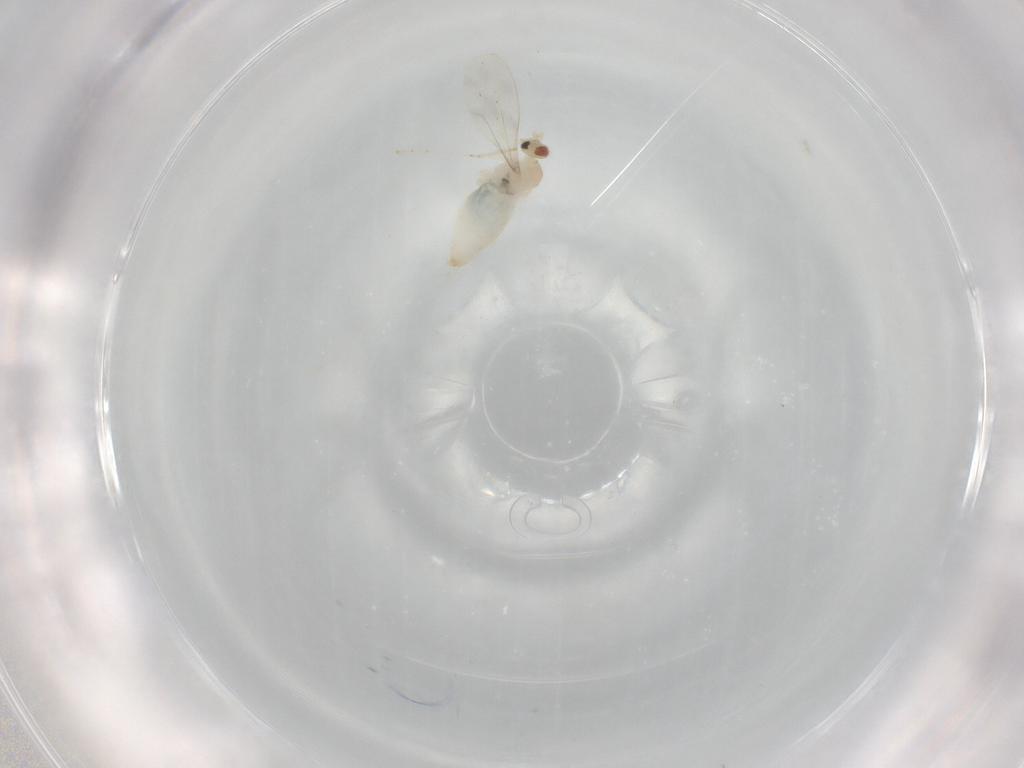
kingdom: Animalia
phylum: Arthropoda
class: Insecta
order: Diptera
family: Cecidomyiidae
